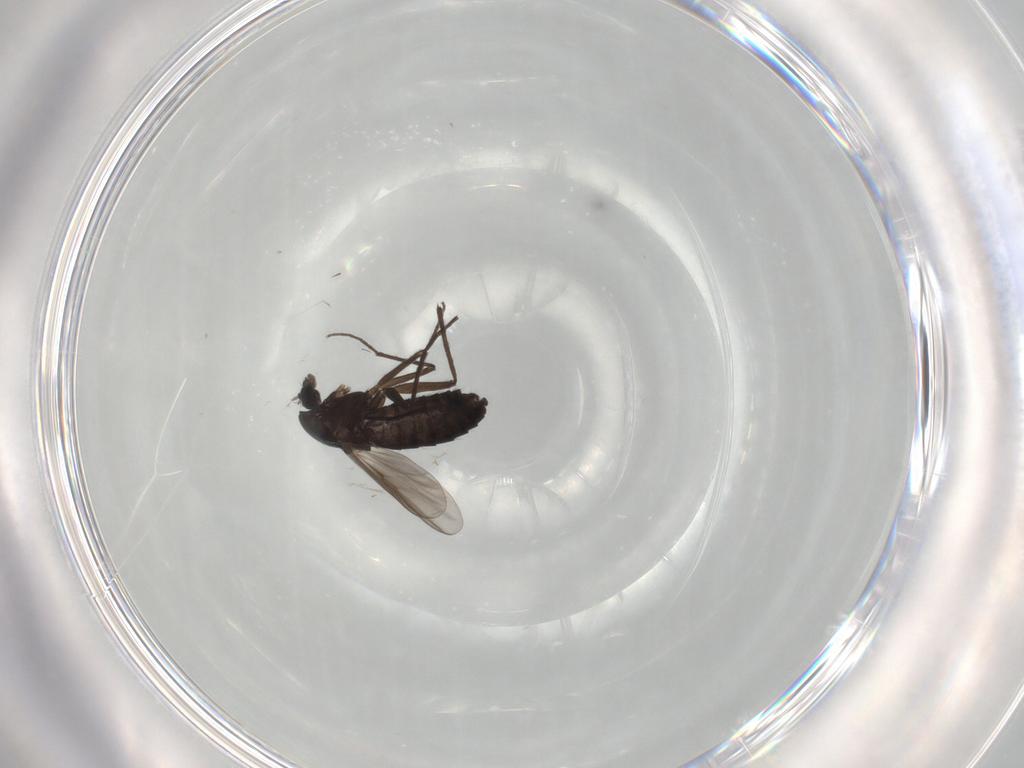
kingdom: Animalia
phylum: Arthropoda
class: Insecta
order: Diptera
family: Chironomidae
